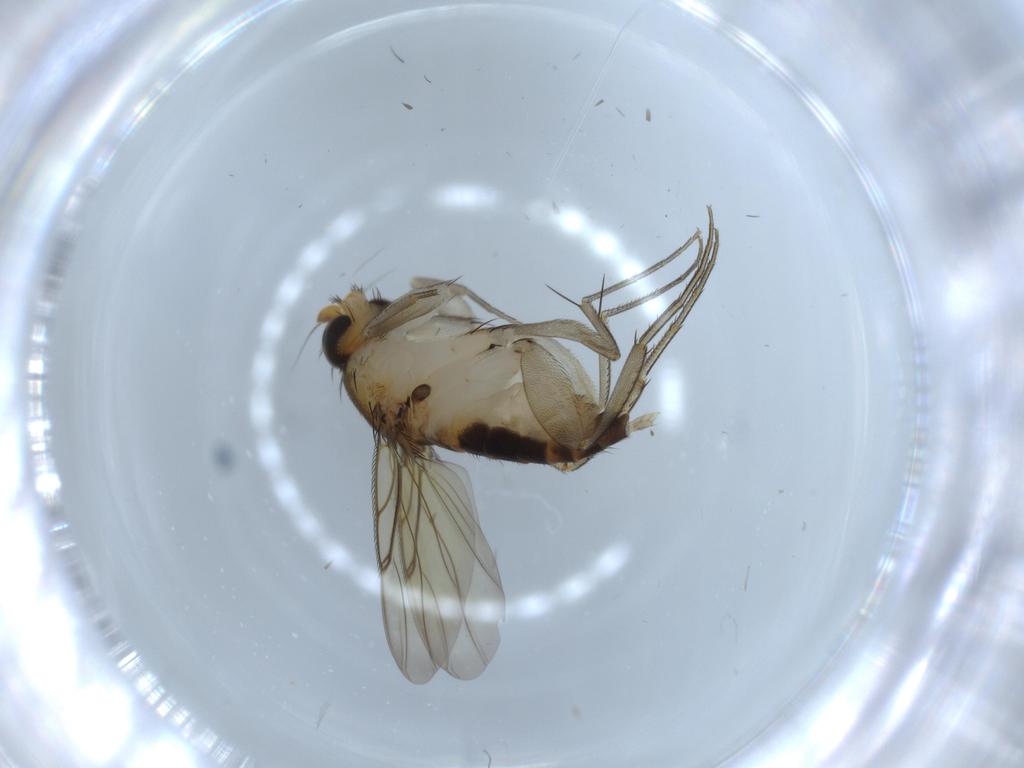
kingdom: Animalia
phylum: Arthropoda
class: Insecta
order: Diptera
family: Phoridae
